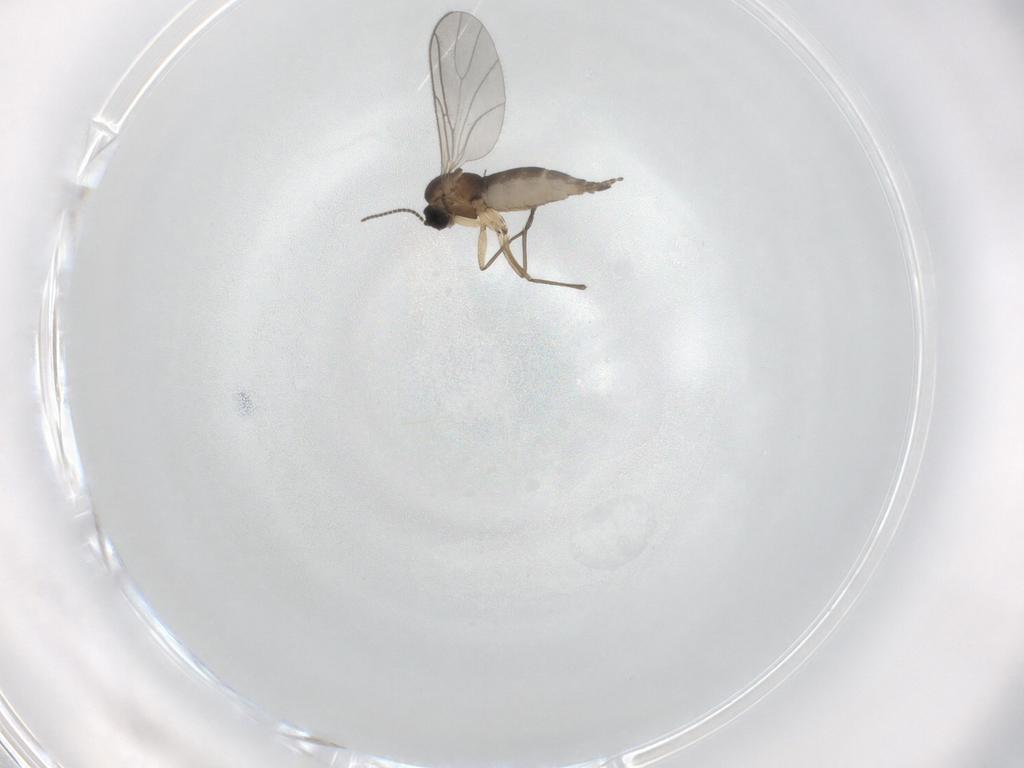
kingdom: Animalia
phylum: Arthropoda
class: Insecta
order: Diptera
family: Sciaridae
